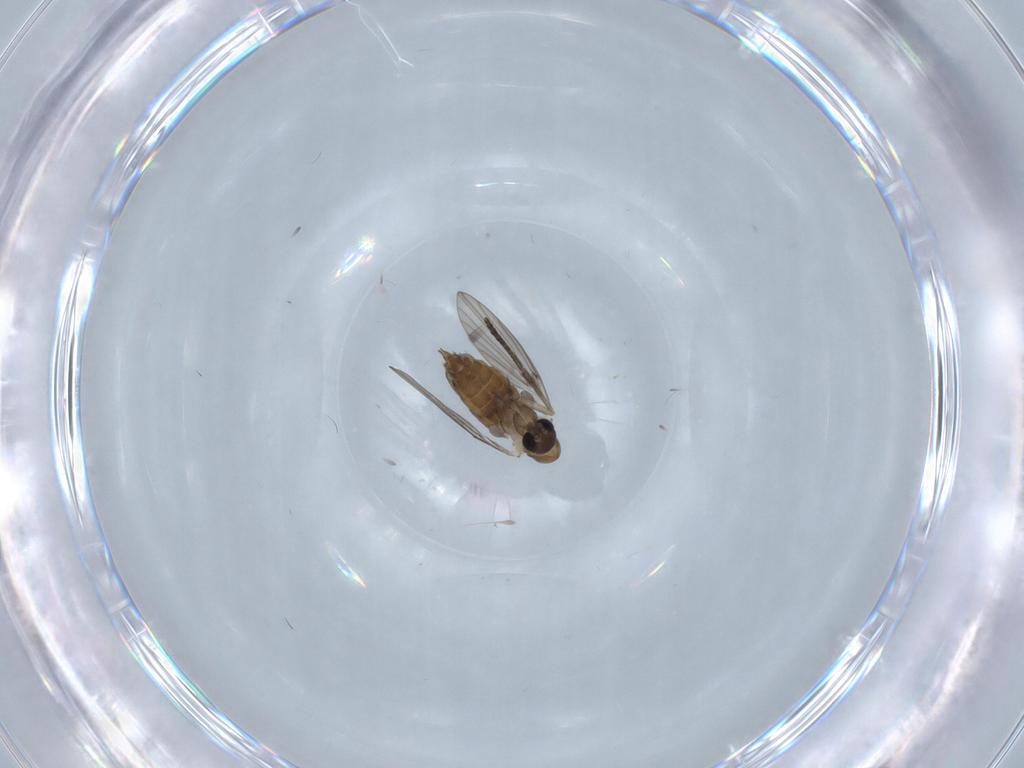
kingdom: Animalia
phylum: Arthropoda
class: Insecta
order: Diptera
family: Psychodidae
